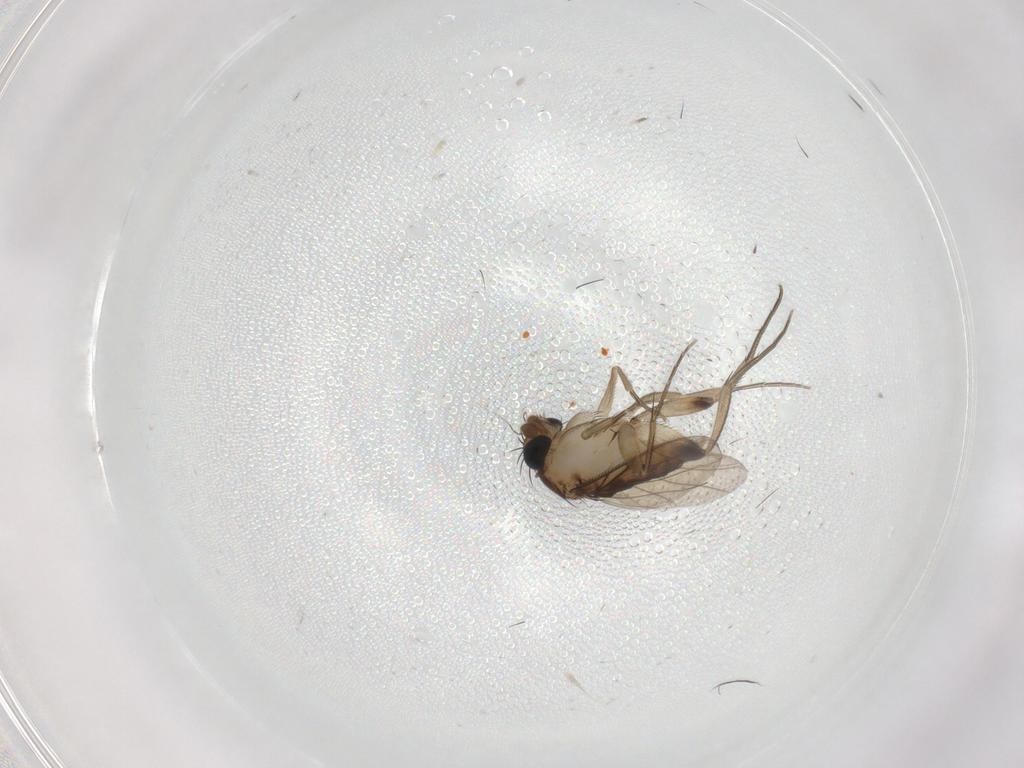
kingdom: Animalia
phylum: Arthropoda
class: Insecta
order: Diptera
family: Phoridae
